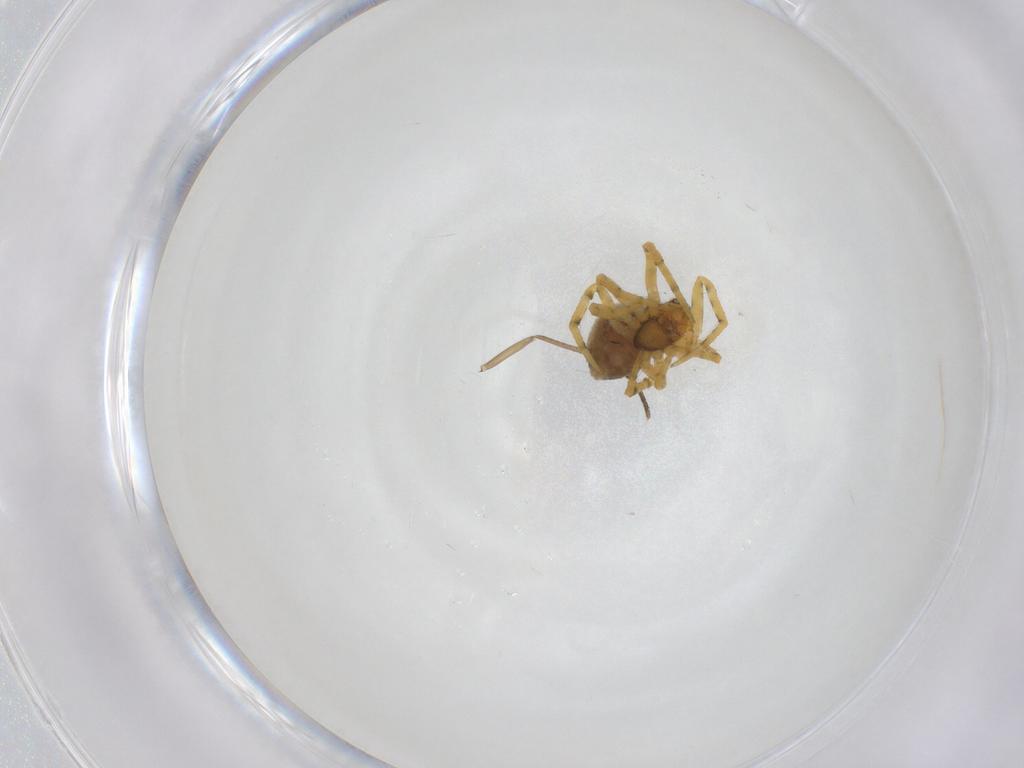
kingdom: Animalia
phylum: Arthropoda
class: Arachnida
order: Araneae
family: Theridiidae
